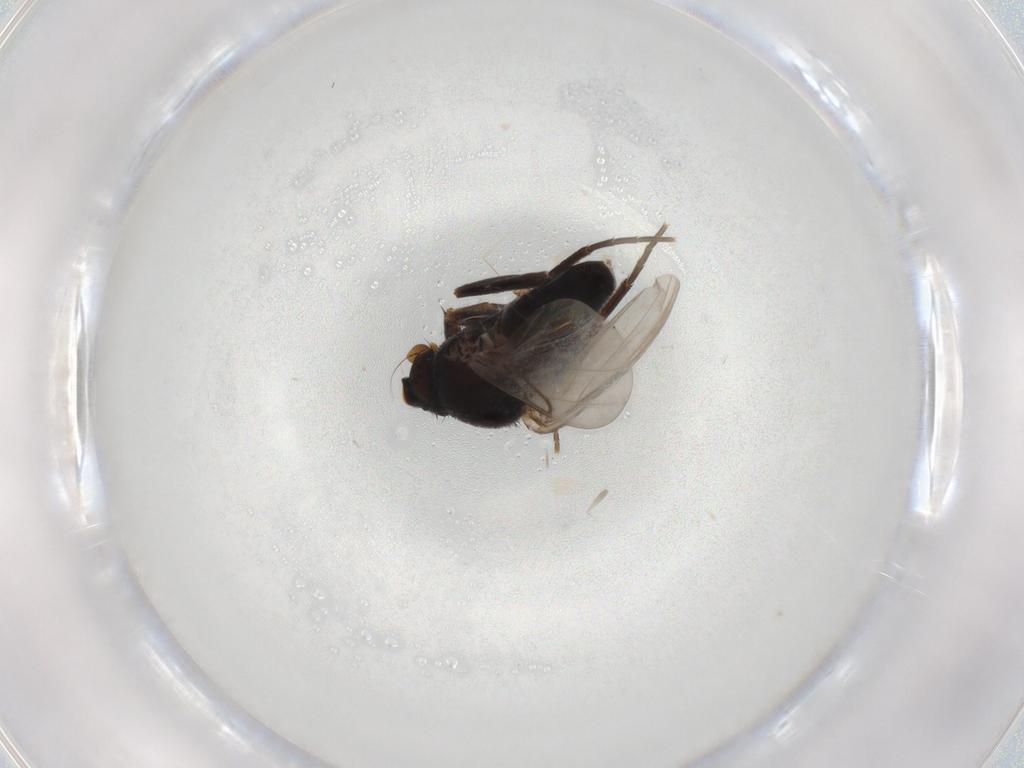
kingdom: Animalia
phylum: Arthropoda
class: Insecta
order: Diptera
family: Phoridae
